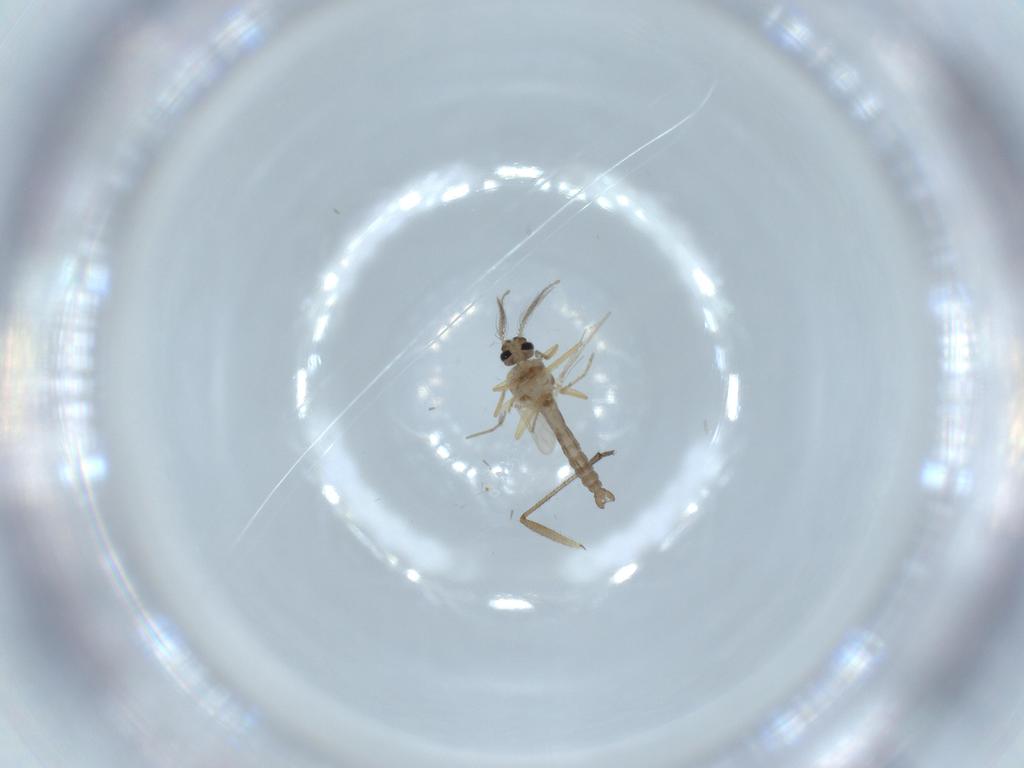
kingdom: Animalia
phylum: Arthropoda
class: Insecta
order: Diptera
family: Ceratopogonidae
